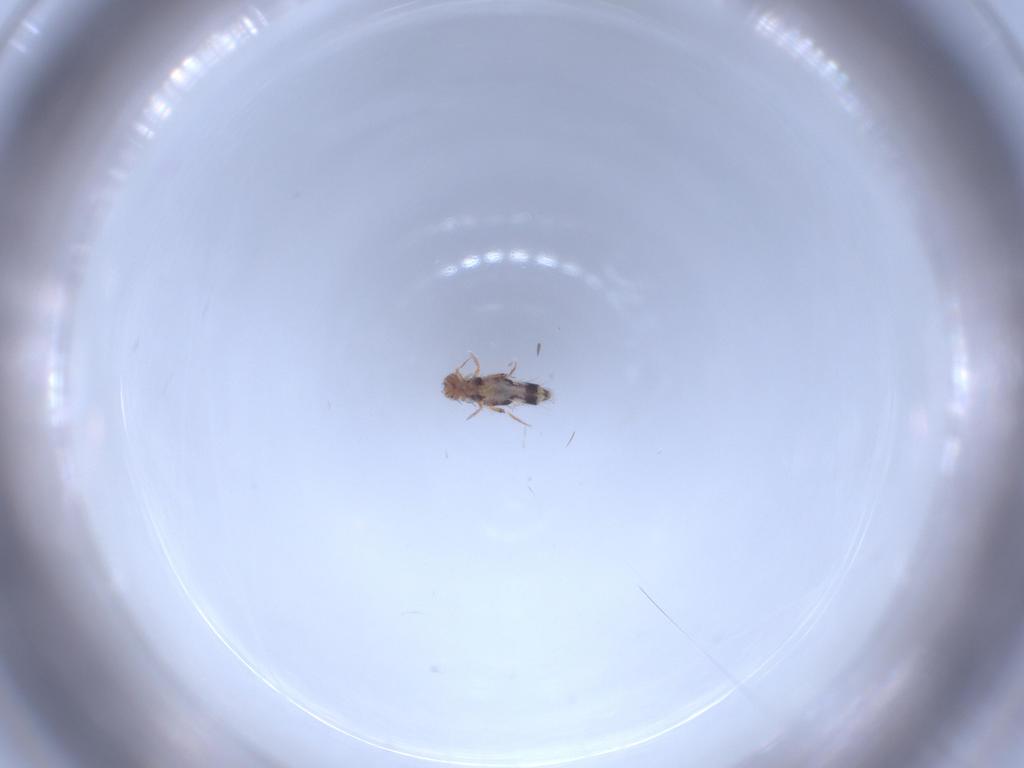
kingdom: Animalia
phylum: Arthropoda
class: Collembola
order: Entomobryomorpha
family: Entomobryidae
